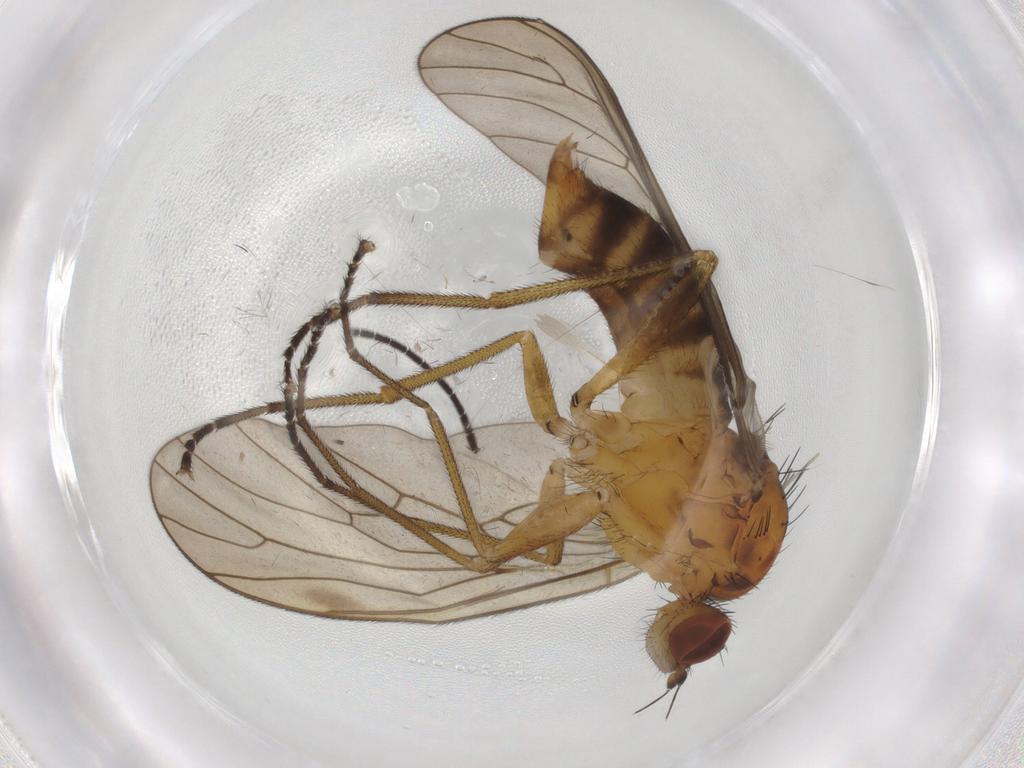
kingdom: Animalia
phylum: Arthropoda
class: Insecta
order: Diptera
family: Brachystomatidae
